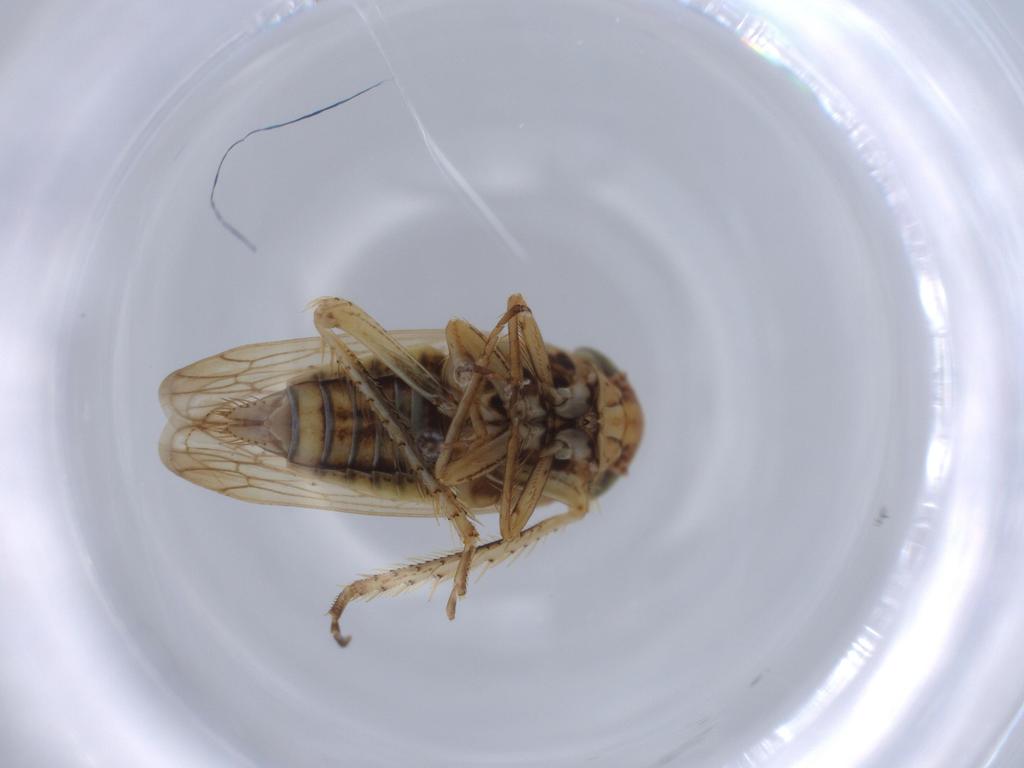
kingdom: Animalia
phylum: Arthropoda
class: Insecta
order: Hemiptera
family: Cicadellidae
